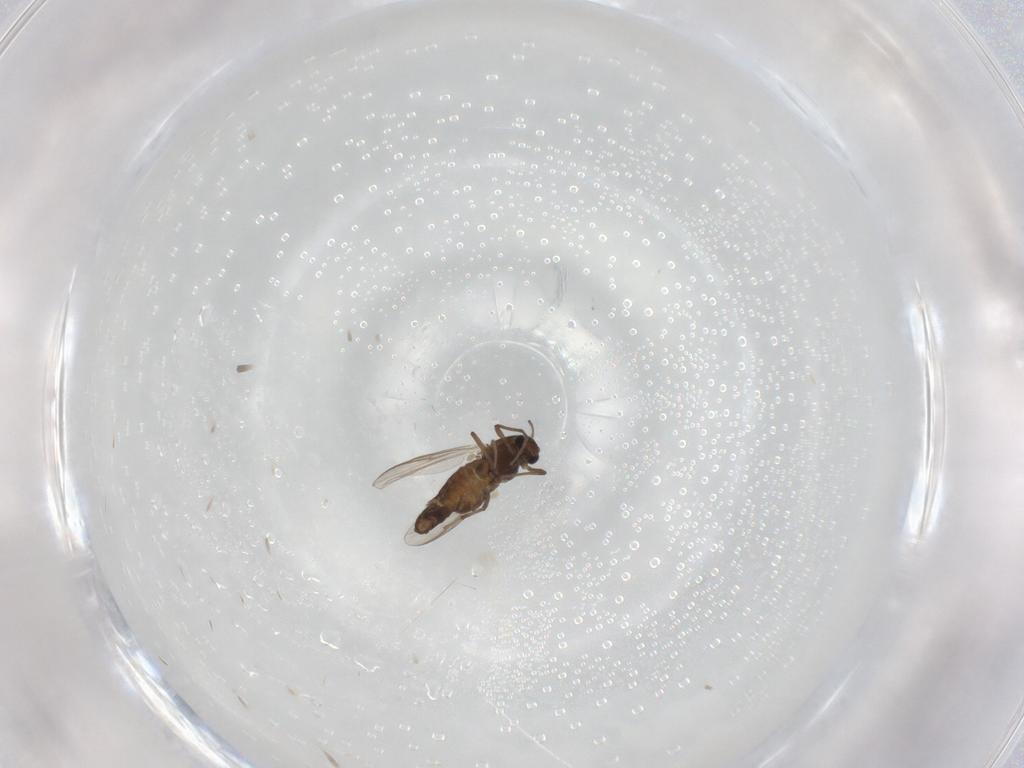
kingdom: Animalia
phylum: Arthropoda
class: Insecta
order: Diptera
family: Chironomidae
